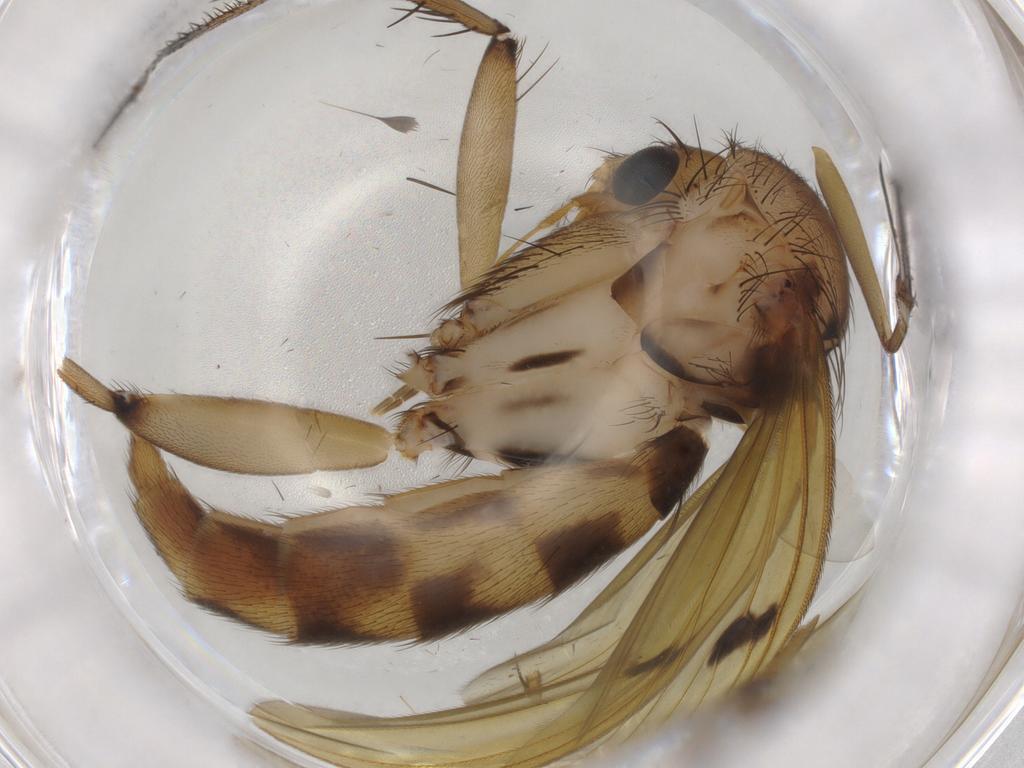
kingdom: Animalia
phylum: Arthropoda
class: Insecta
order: Diptera
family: Mycetophilidae
